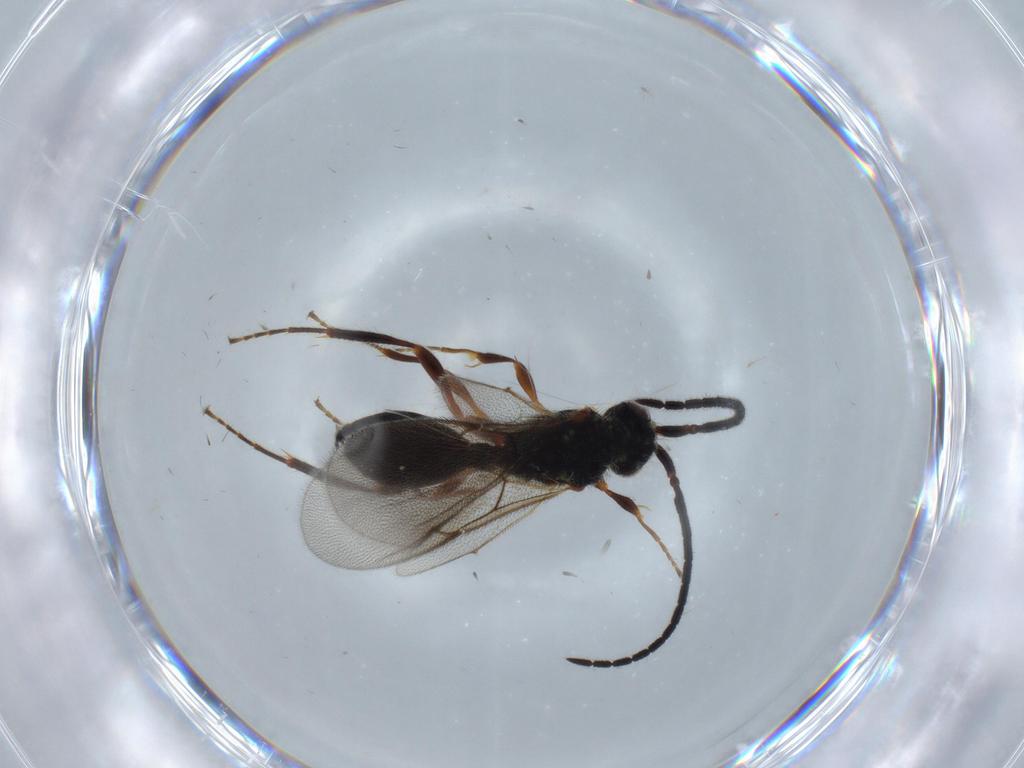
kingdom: Animalia
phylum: Arthropoda
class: Insecta
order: Hymenoptera
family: Diapriidae
